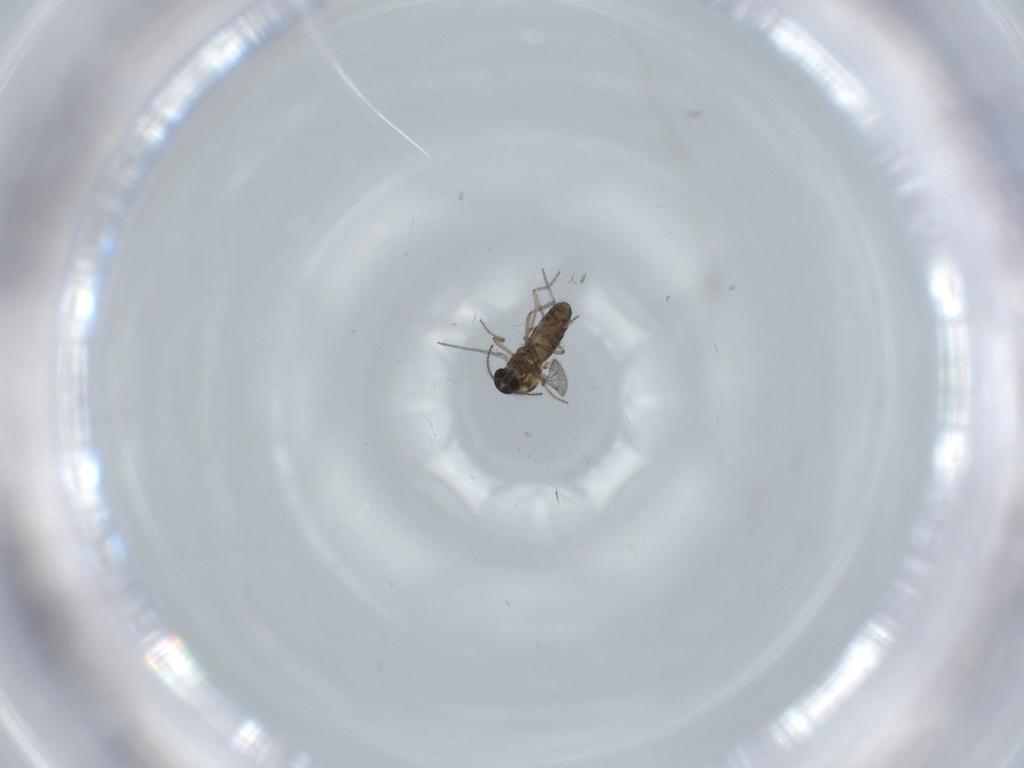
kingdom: Animalia
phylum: Arthropoda
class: Insecta
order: Diptera
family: Ceratopogonidae
